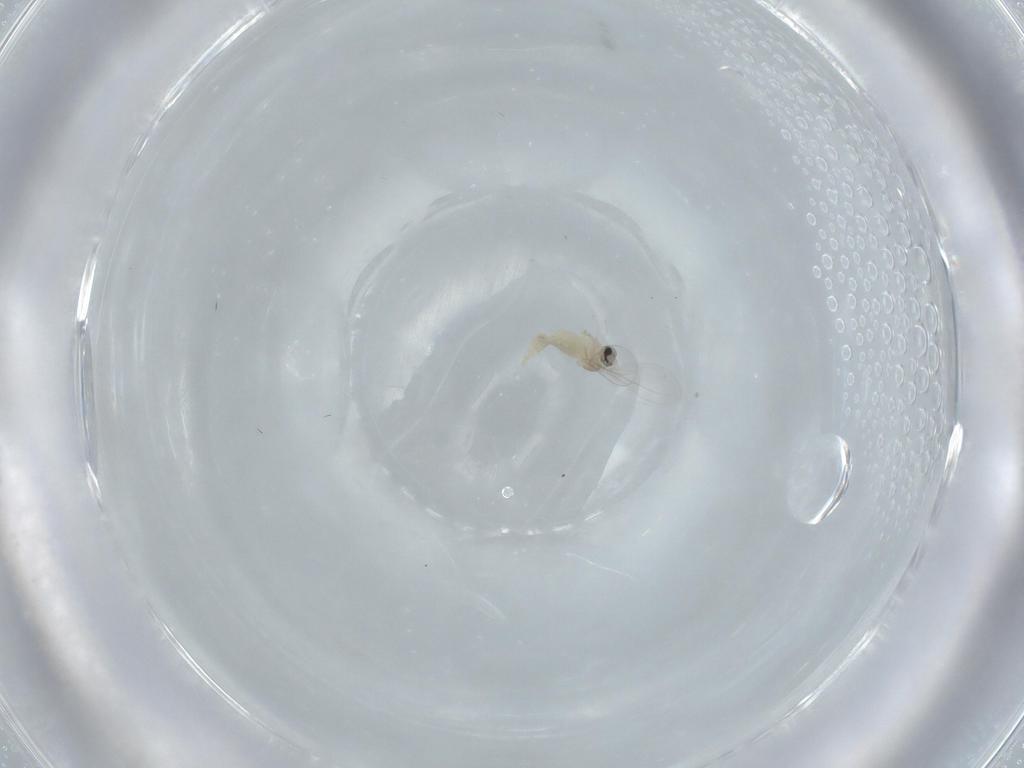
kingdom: Animalia
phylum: Arthropoda
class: Insecta
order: Diptera
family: Cecidomyiidae
